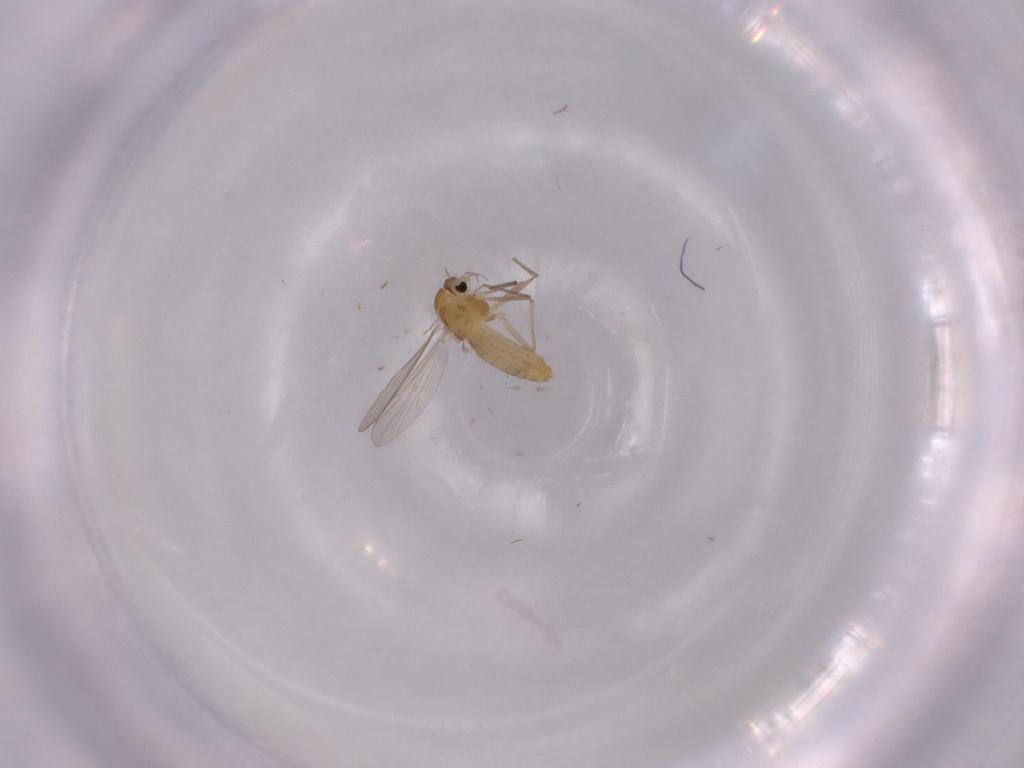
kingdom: Animalia
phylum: Arthropoda
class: Insecta
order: Diptera
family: Chironomidae
